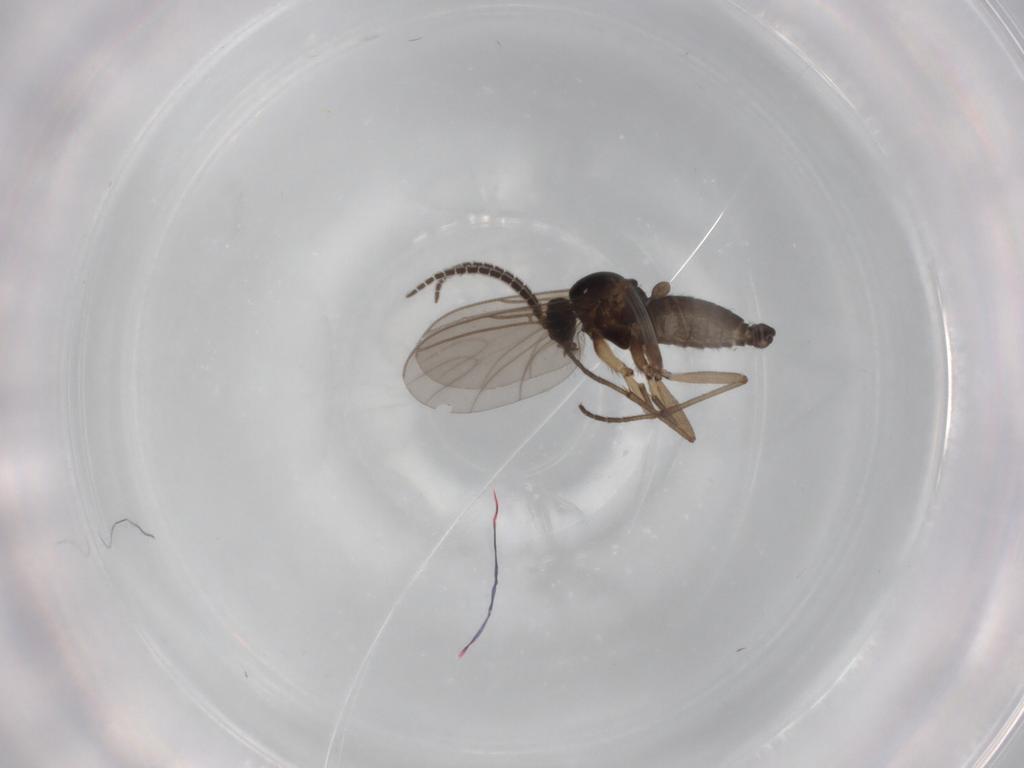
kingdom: Animalia
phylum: Arthropoda
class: Insecta
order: Diptera
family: Sciaridae
